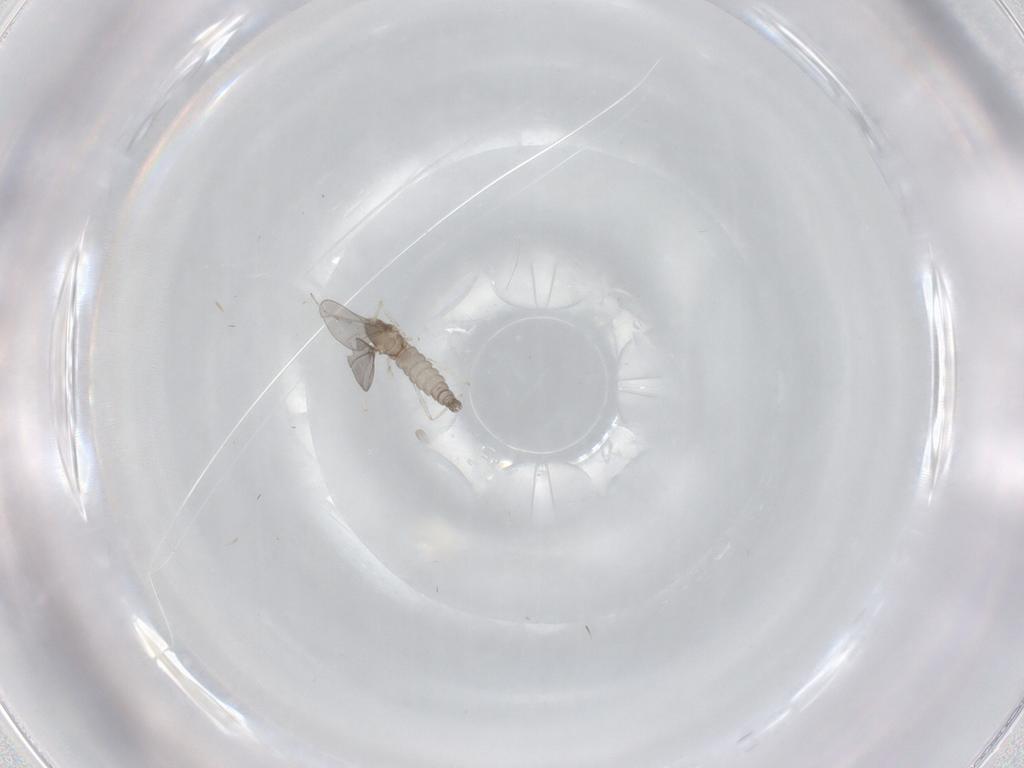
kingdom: Animalia
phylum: Arthropoda
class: Insecta
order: Diptera
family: Cecidomyiidae
